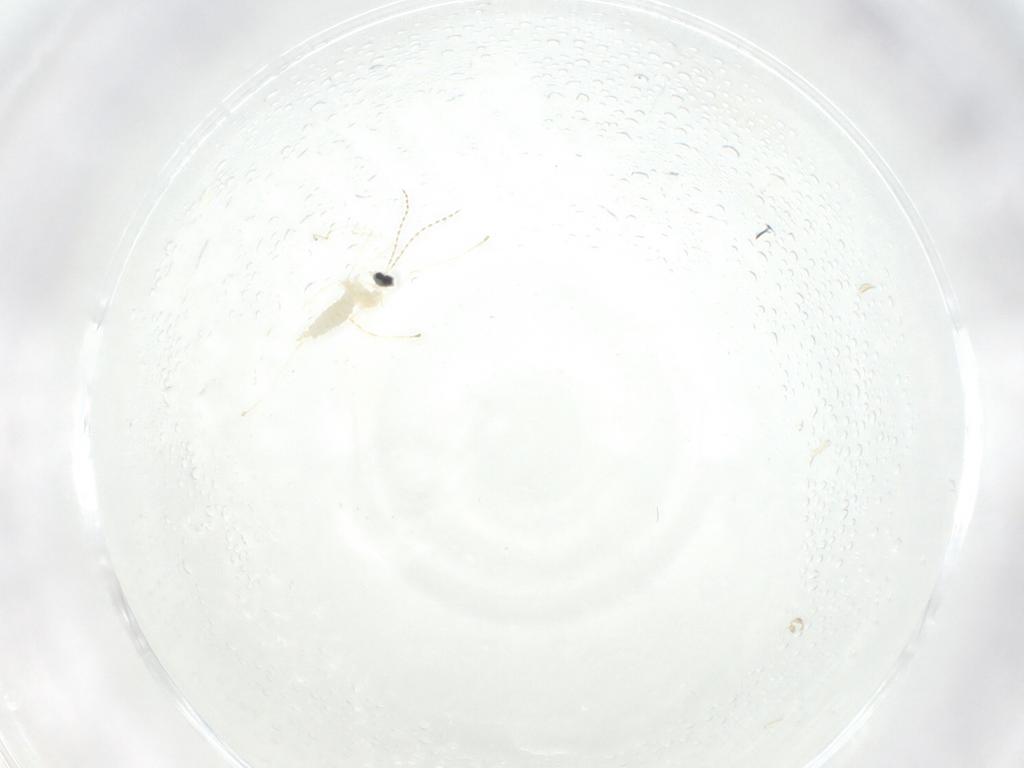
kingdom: Animalia
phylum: Arthropoda
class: Insecta
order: Diptera
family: Cecidomyiidae
